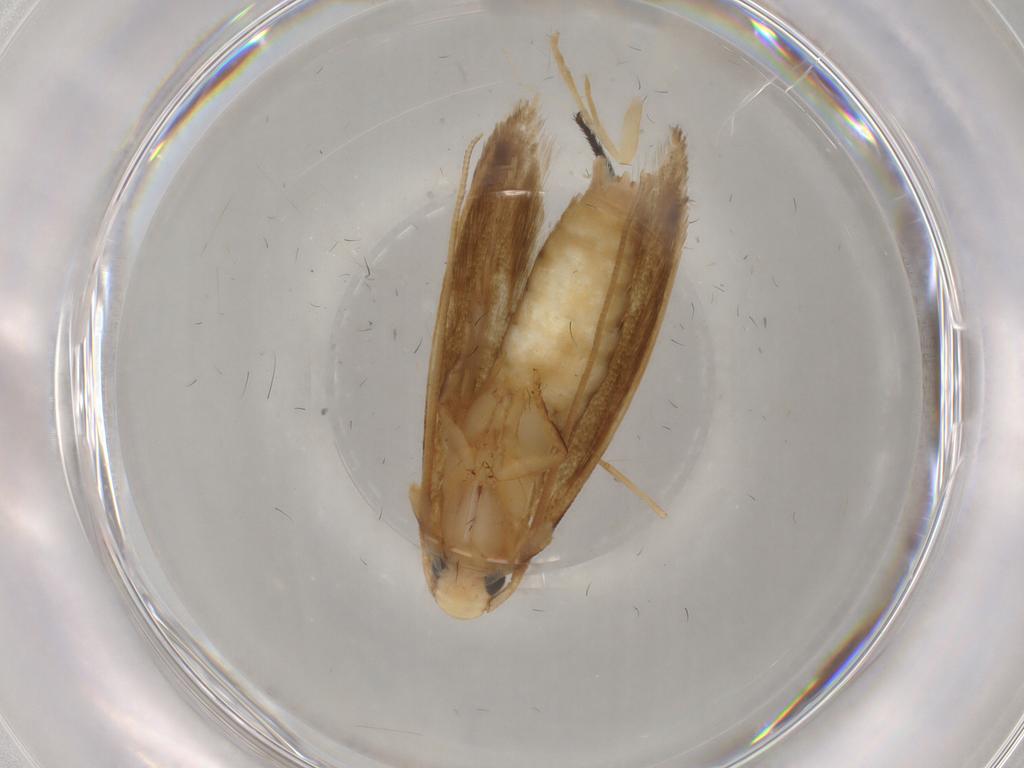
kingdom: Animalia
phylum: Arthropoda
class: Insecta
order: Lepidoptera
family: Tineidae
